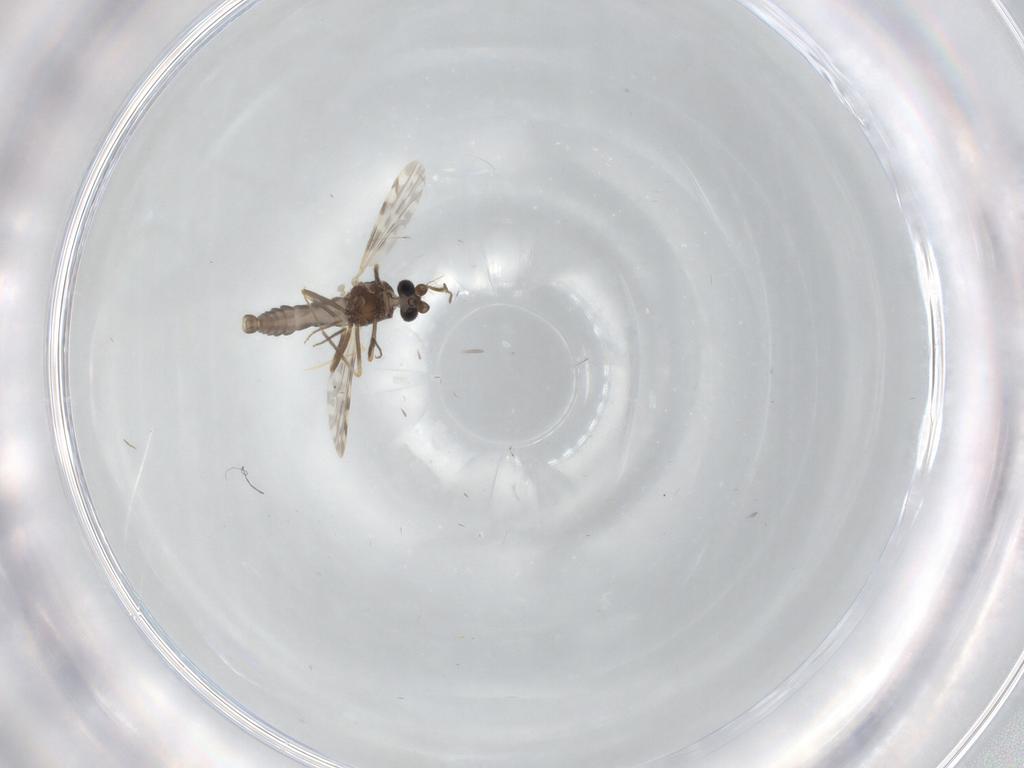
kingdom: Animalia
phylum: Arthropoda
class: Insecta
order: Diptera
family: Ceratopogonidae
